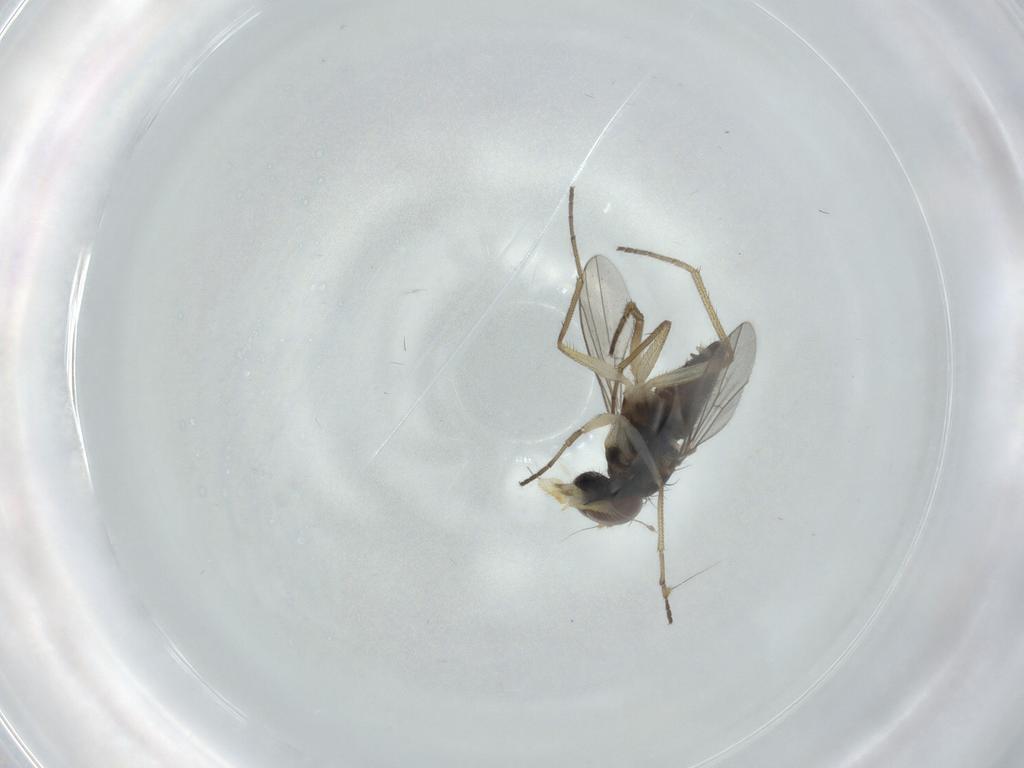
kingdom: Animalia
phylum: Arthropoda
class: Insecta
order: Diptera
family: Dolichopodidae
